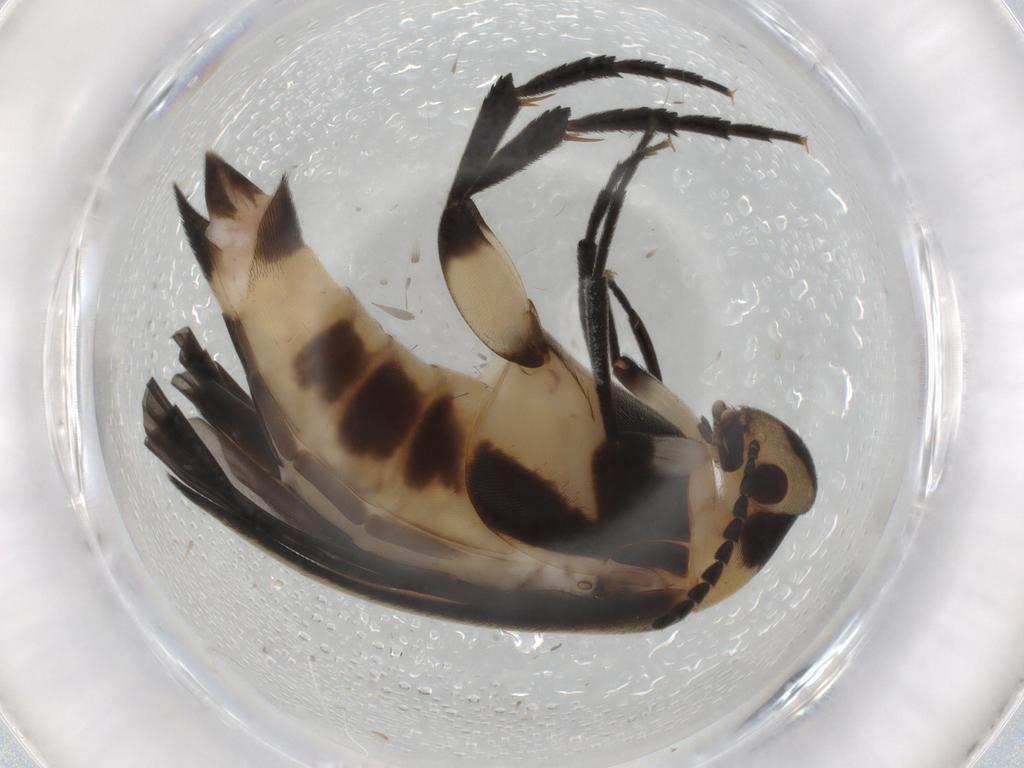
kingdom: Animalia
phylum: Arthropoda
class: Insecta
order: Coleoptera
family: Mordellidae
